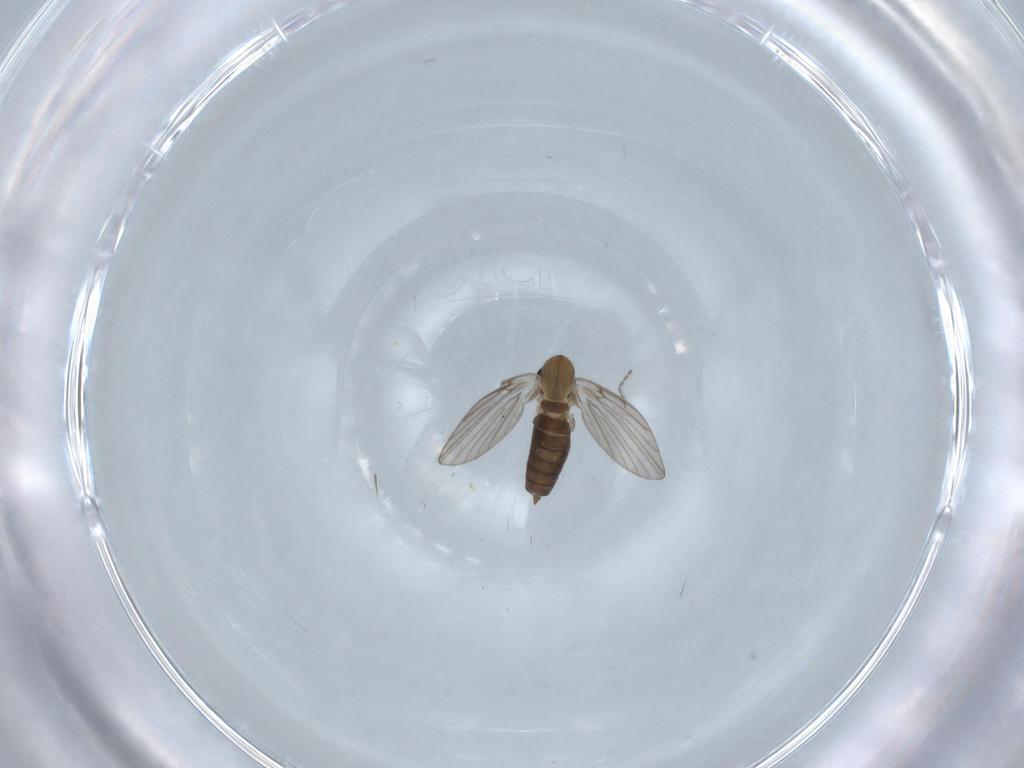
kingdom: Animalia
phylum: Arthropoda
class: Insecta
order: Diptera
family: Psychodidae
